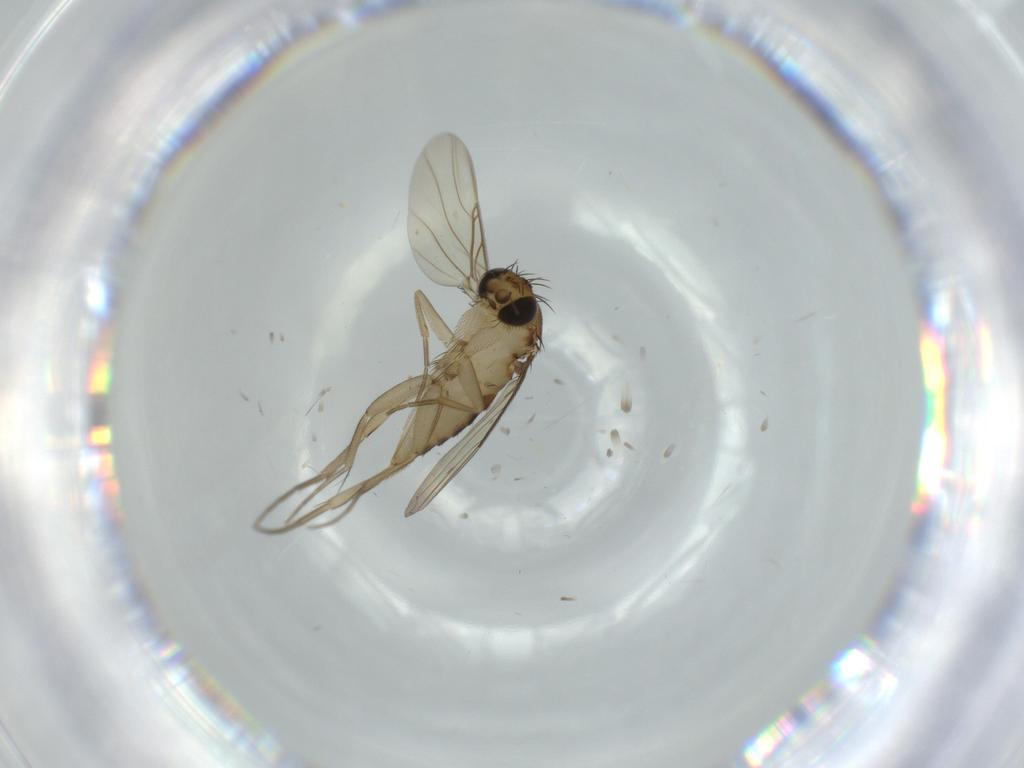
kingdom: Animalia
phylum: Arthropoda
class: Insecta
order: Diptera
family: Phoridae
